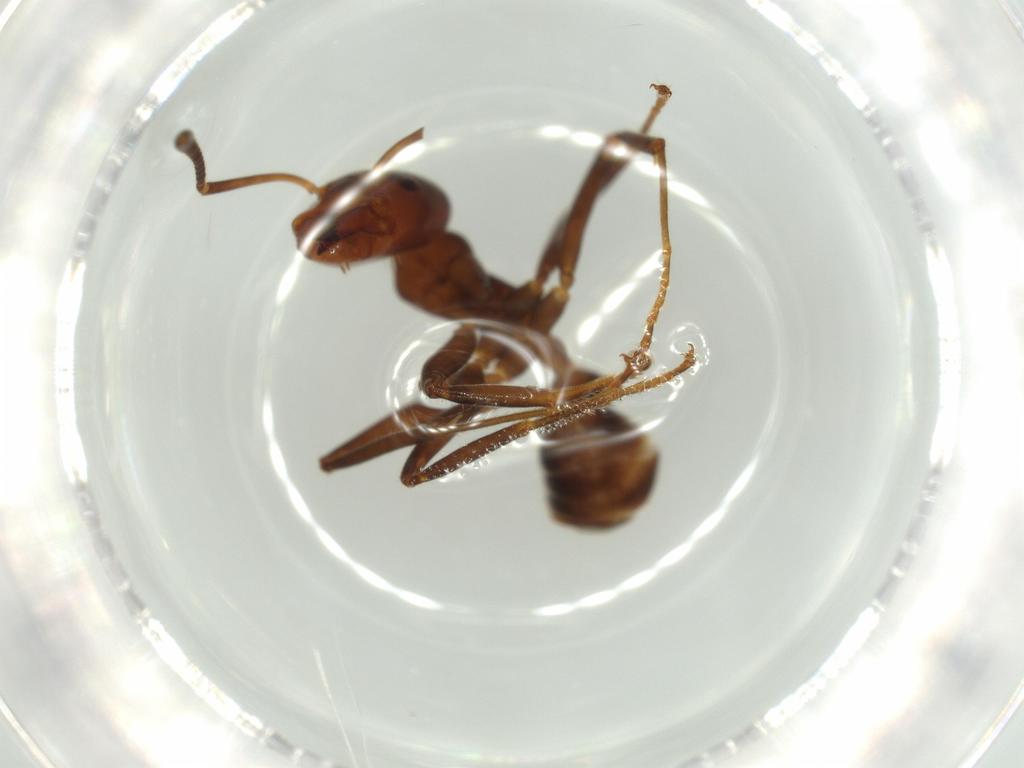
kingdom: Animalia
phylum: Arthropoda
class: Insecta
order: Hymenoptera
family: Formicidae
